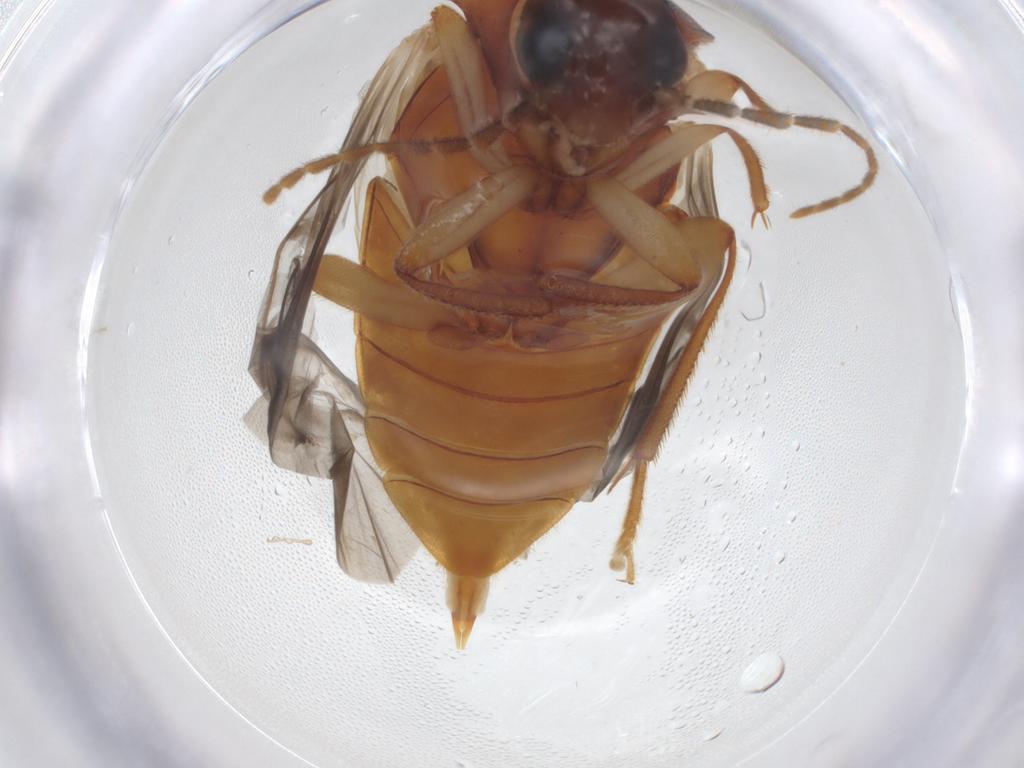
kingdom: Animalia
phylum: Arthropoda
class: Insecta
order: Coleoptera
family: Ptilodactylidae
